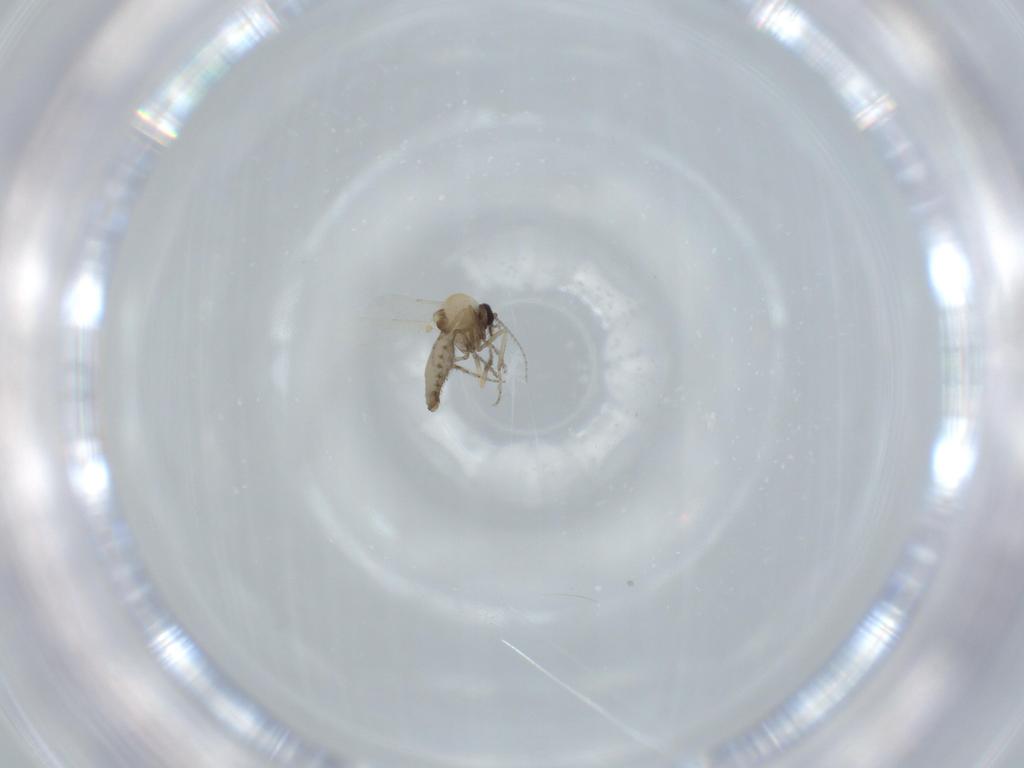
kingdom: Animalia
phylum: Arthropoda
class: Insecta
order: Diptera
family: Ceratopogonidae
